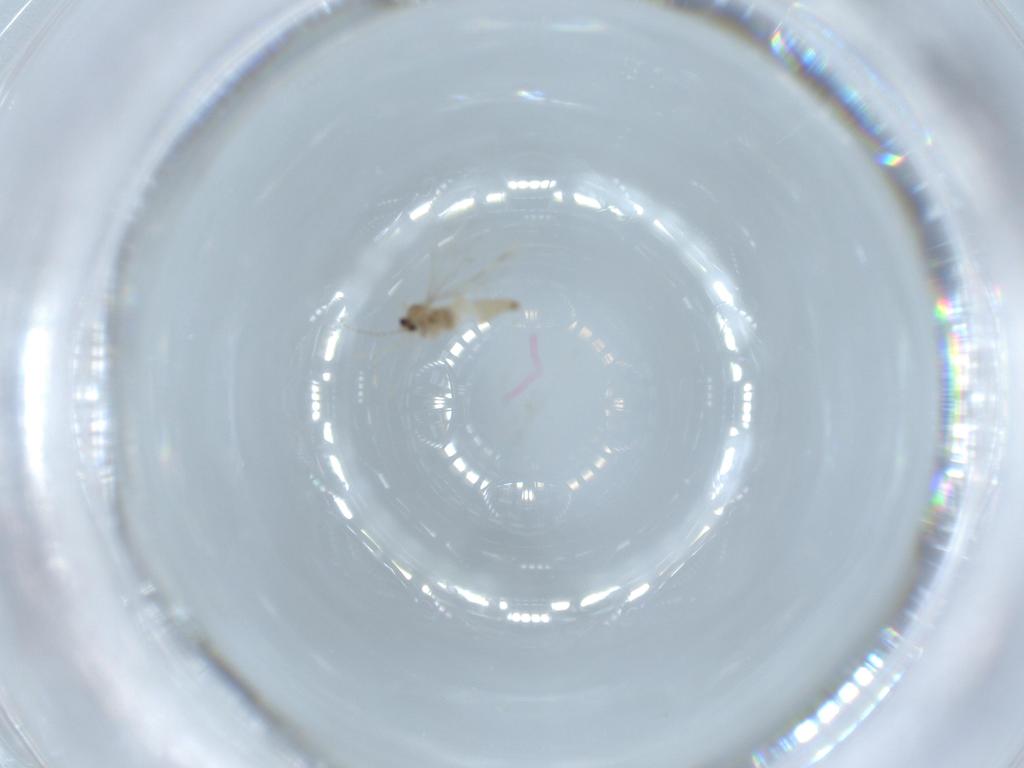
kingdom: Animalia
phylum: Arthropoda
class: Insecta
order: Diptera
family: Cecidomyiidae
